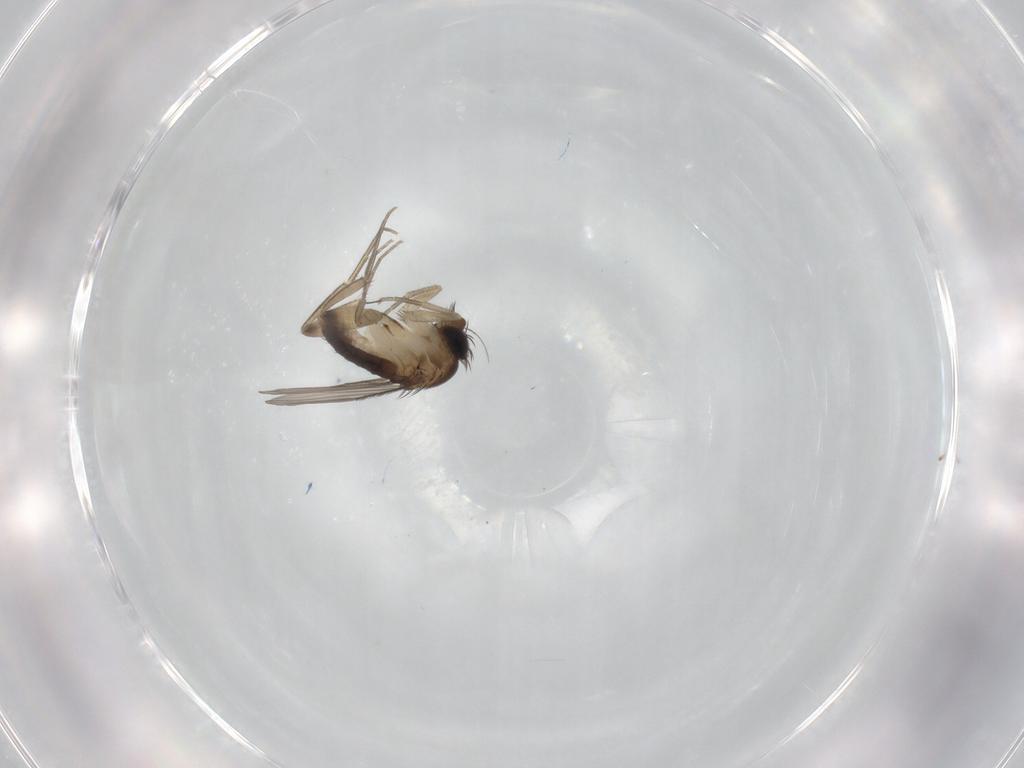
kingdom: Animalia
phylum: Arthropoda
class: Insecta
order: Diptera
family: Phoridae
